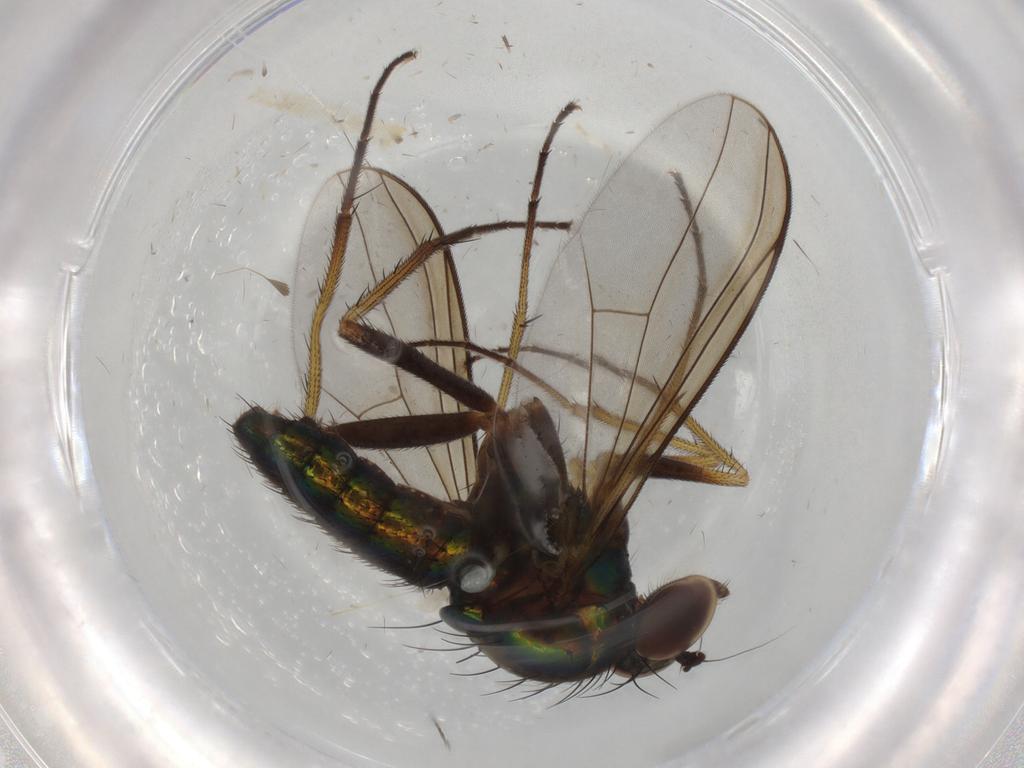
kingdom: Animalia
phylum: Arthropoda
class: Insecta
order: Diptera
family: Dolichopodidae
